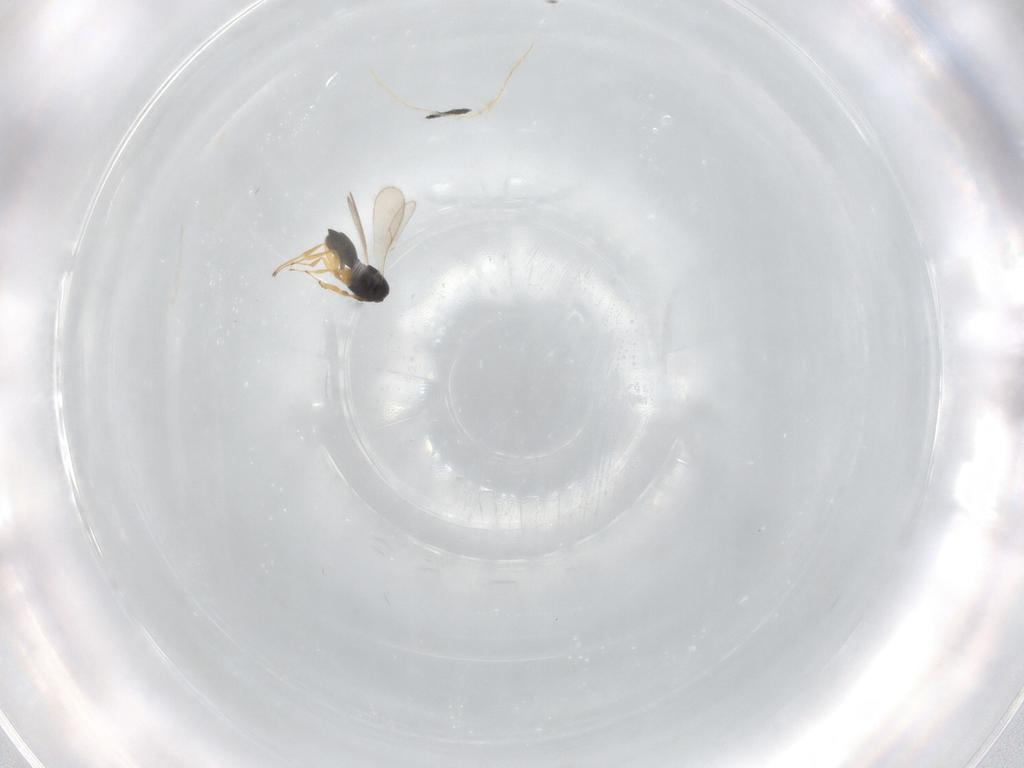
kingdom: Animalia
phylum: Arthropoda
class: Insecta
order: Hymenoptera
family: Scelionidae
